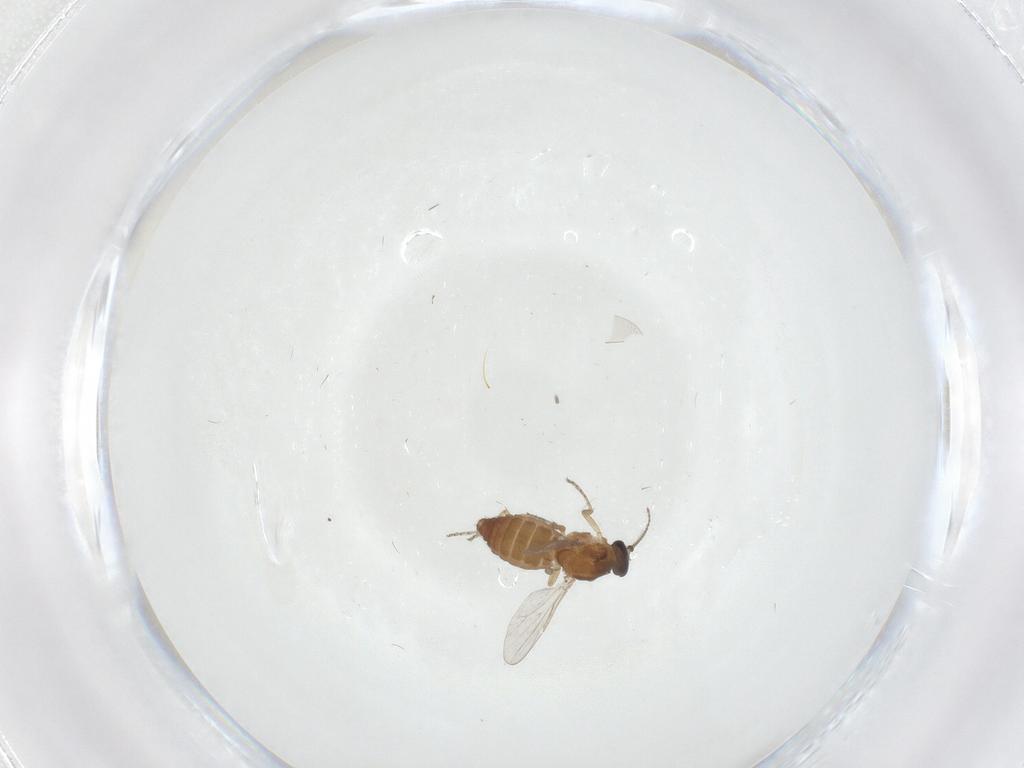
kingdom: Animalia
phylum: Arthropoda
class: Insecta
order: Diptera
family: Ceratopogonidae
